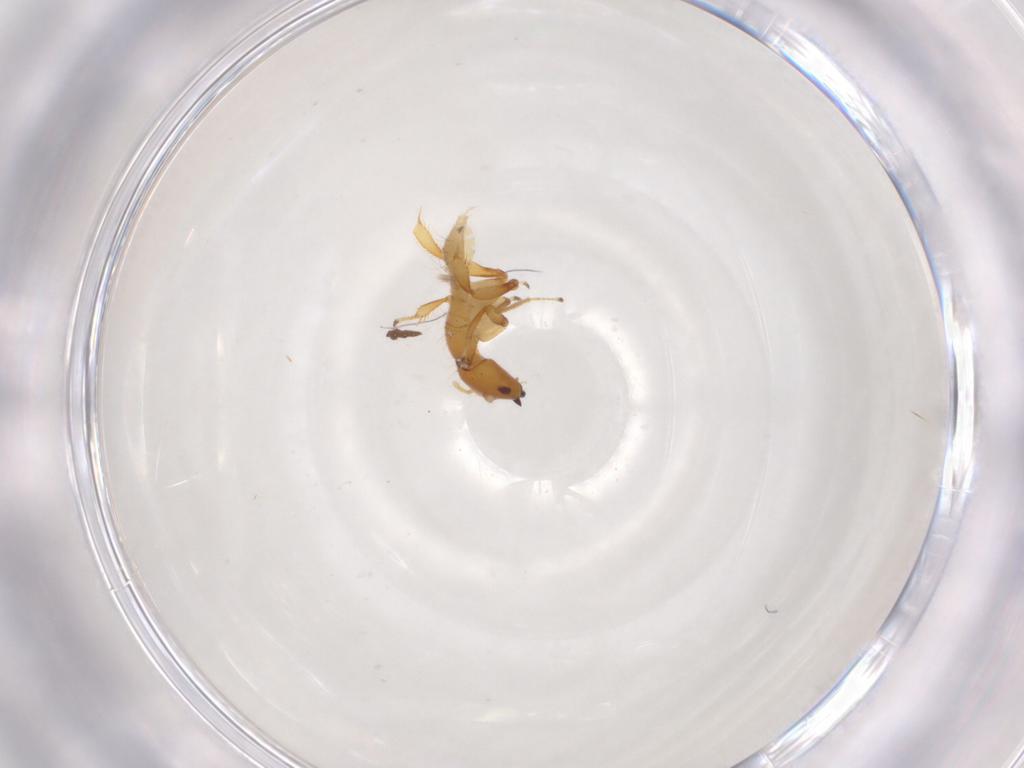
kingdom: Animalia
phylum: Arthropoda
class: Insecta
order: Hymenoptera
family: Pteromalidae
